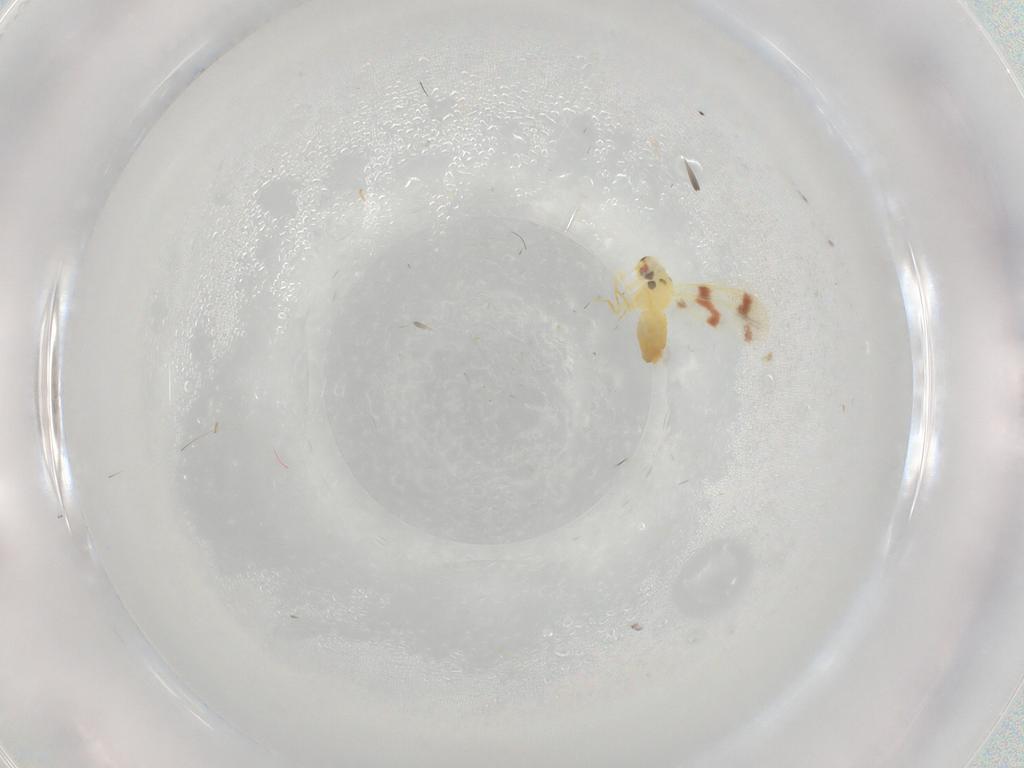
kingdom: Animalia
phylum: Arthropoda
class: Insecta
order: Hemiptera
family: Aleyrodidae
